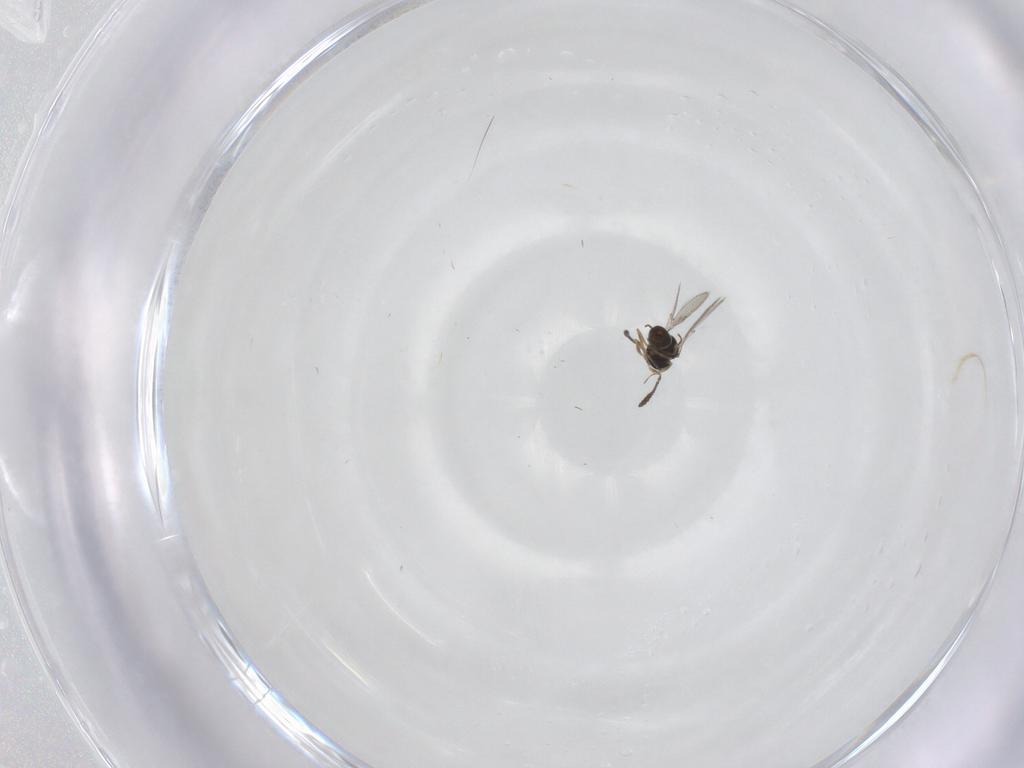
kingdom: Animalia
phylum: Arthropoda
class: Insecta
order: Hymenoptera
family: Scelionidae
